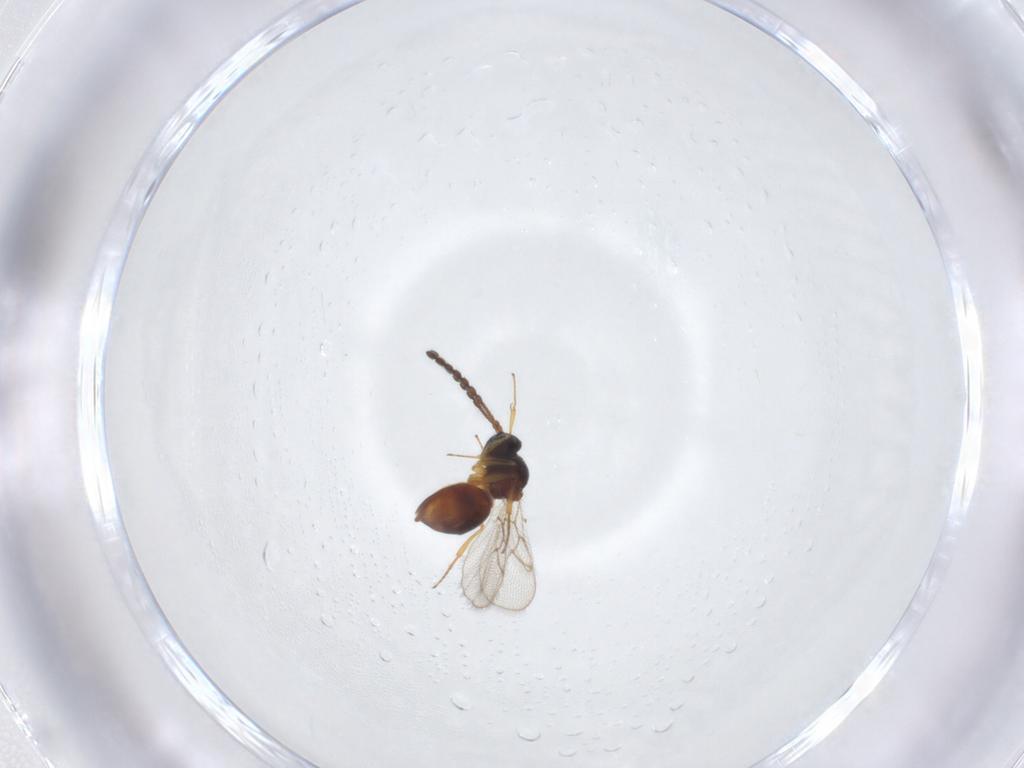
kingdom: Animalia
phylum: Arthropoda
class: Insecta
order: Hymenoptera
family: Figitidae
